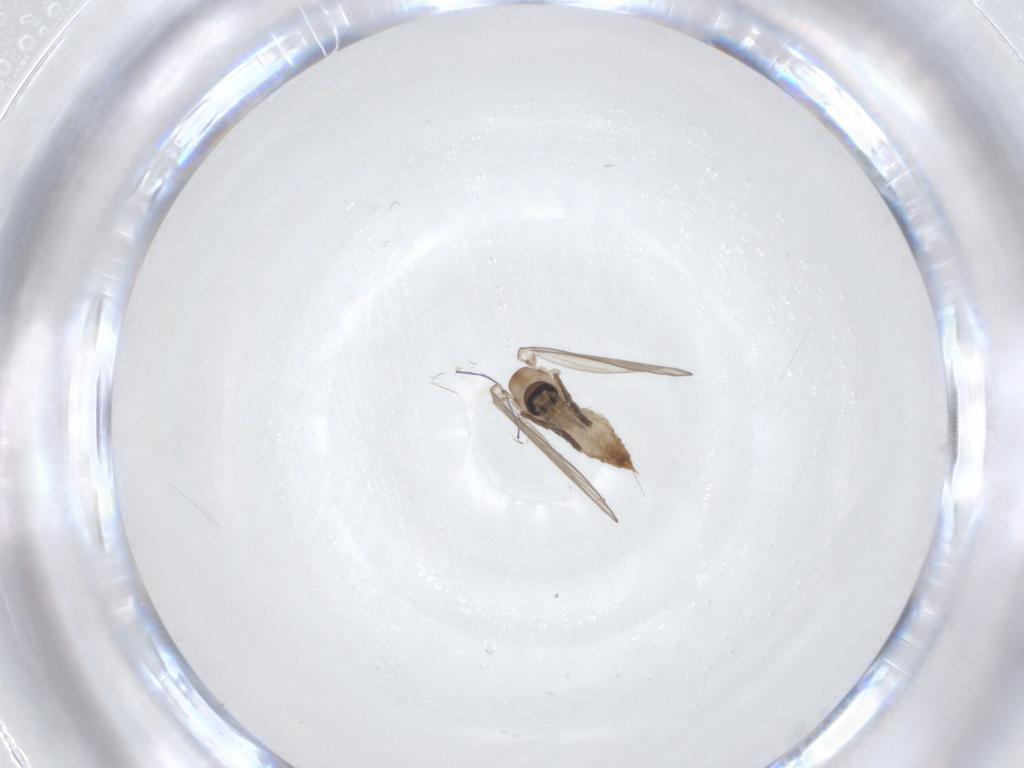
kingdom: Animalia
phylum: Arthropoda
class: Insecta
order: Diptera
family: Psychodidae
